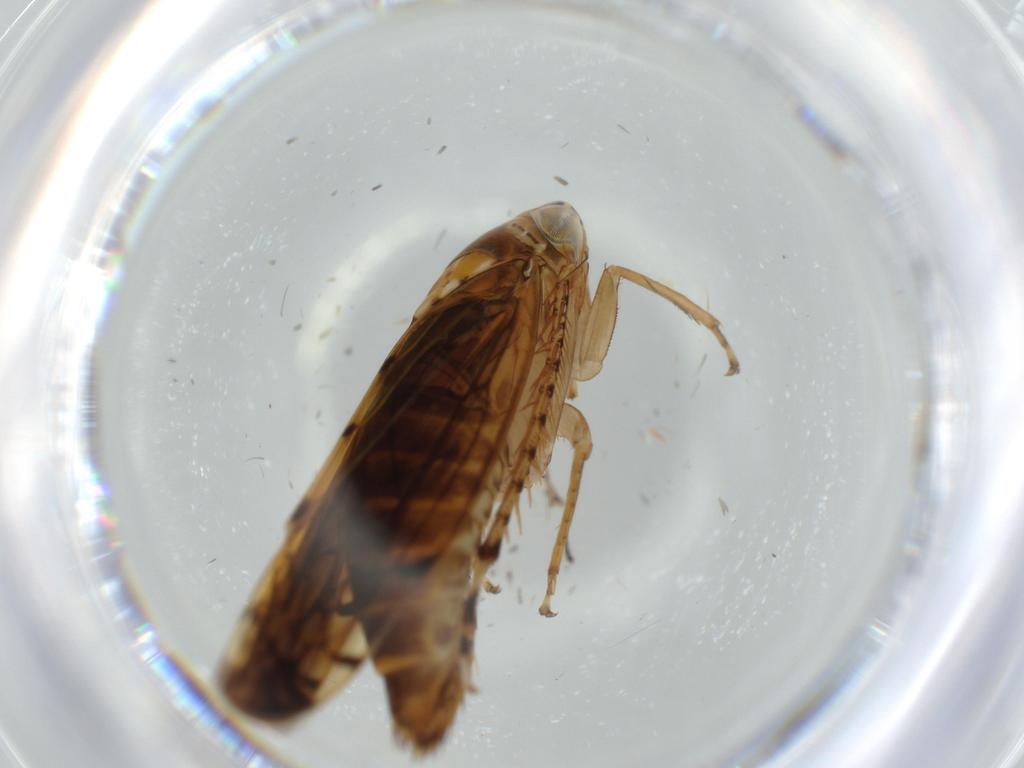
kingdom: Animalia
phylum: Arthropoda
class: Insecta
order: Hemiptera
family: Cicadellidae
